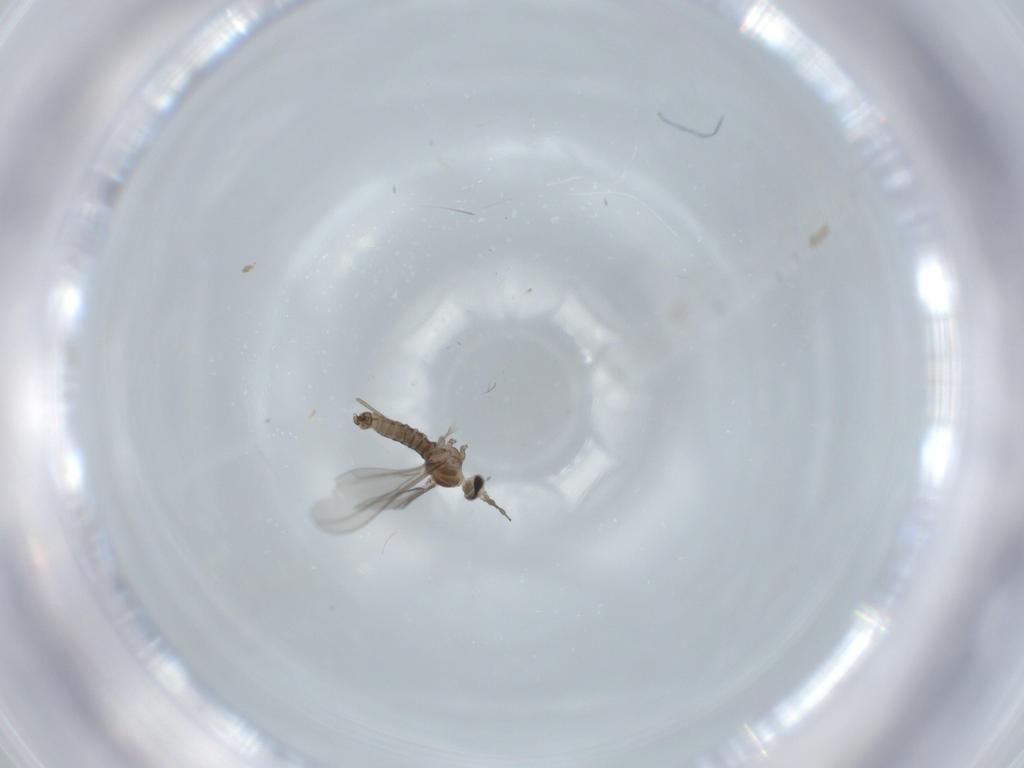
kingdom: Animalia
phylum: Arthropoda
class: Insecta
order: Diptera
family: Cecidomyiidae
